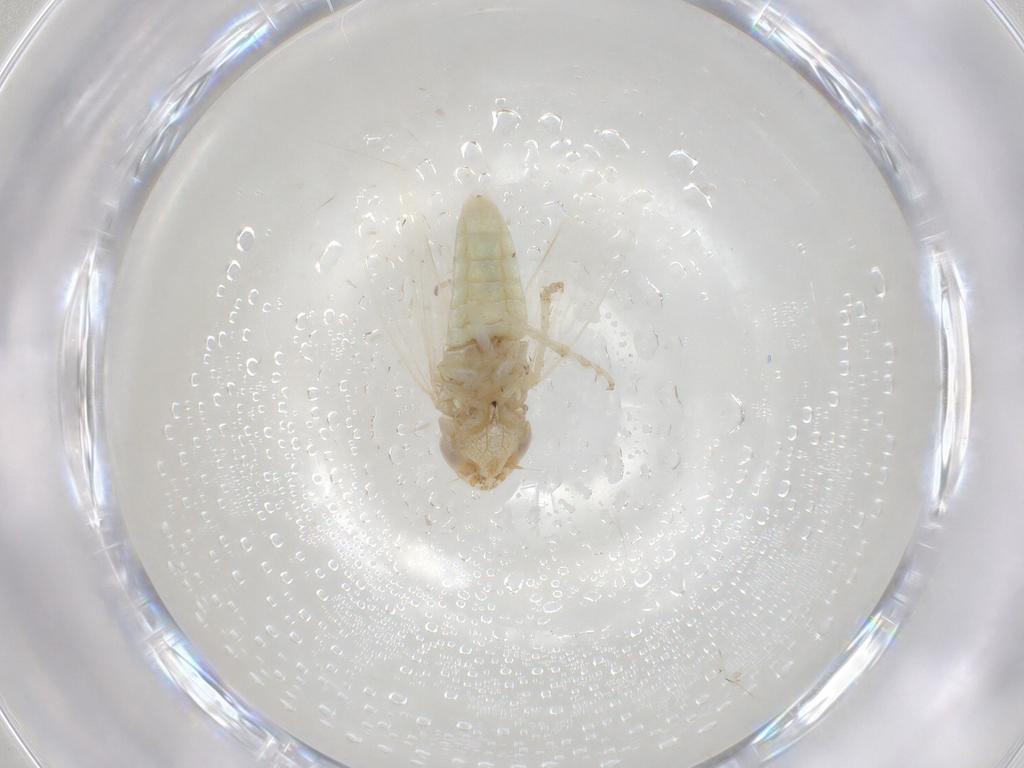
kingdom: Animalia
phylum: Arthropoda
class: Insecta
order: Hemiptera
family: Cicadellidae
